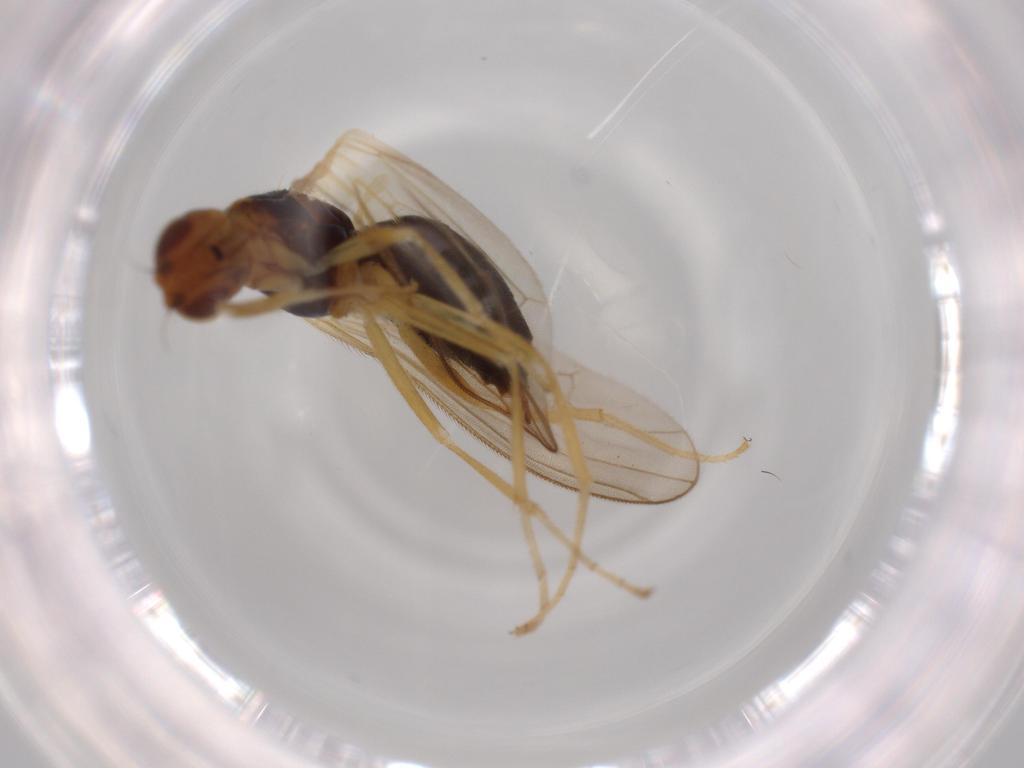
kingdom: Animalia
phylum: Arthropoda
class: Insecta
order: Diptera
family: Psilidae
